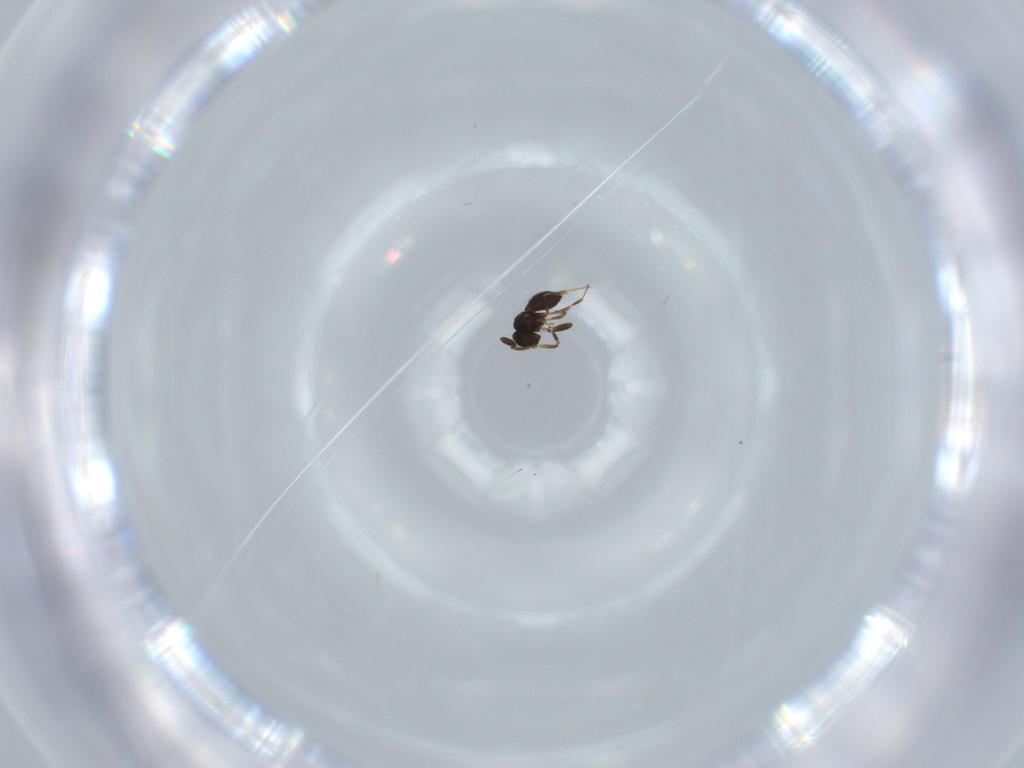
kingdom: Animalia
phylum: Arthropoda
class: Insecta
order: Hymenoptera
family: Scelionidae
